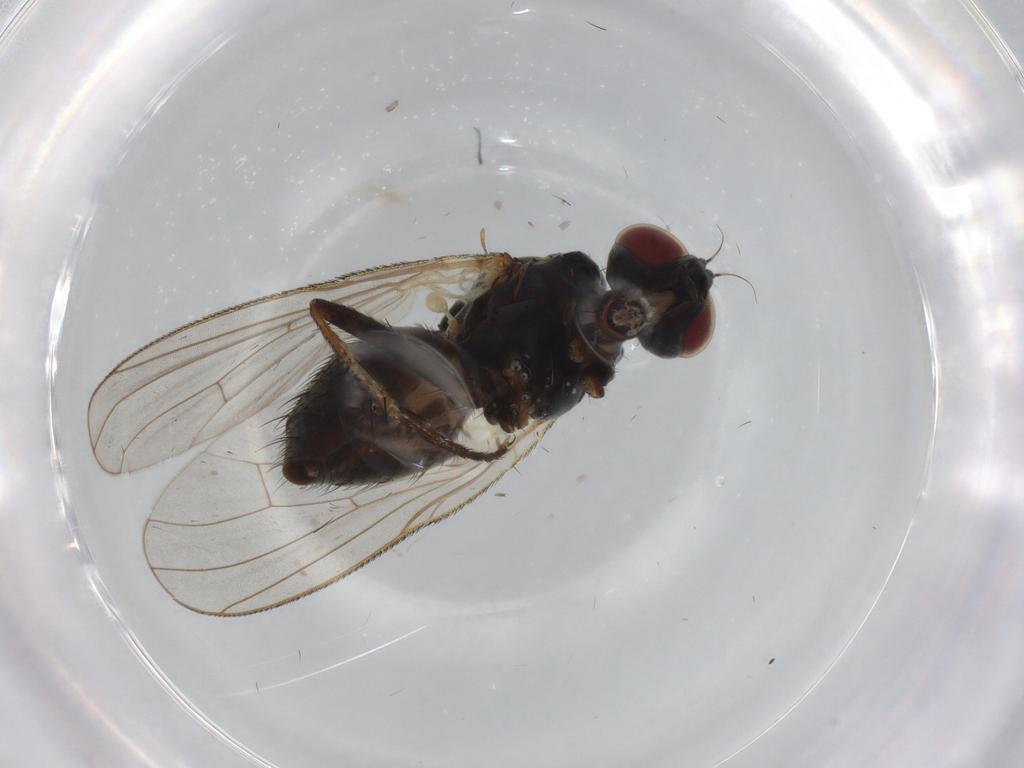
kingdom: Animalia
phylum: Arthropoda
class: Insecta
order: Diptera
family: Muscidae
